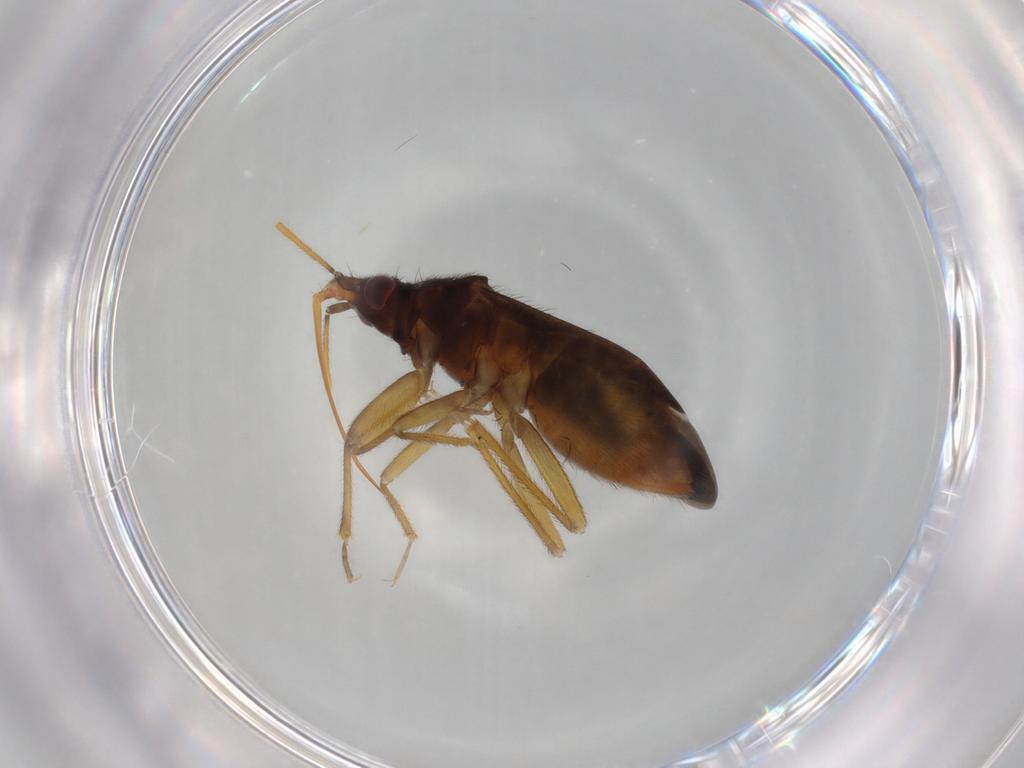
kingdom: Animalia
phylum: Arthropoda
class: Insecta
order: Hemiptera
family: Anthocoridae
